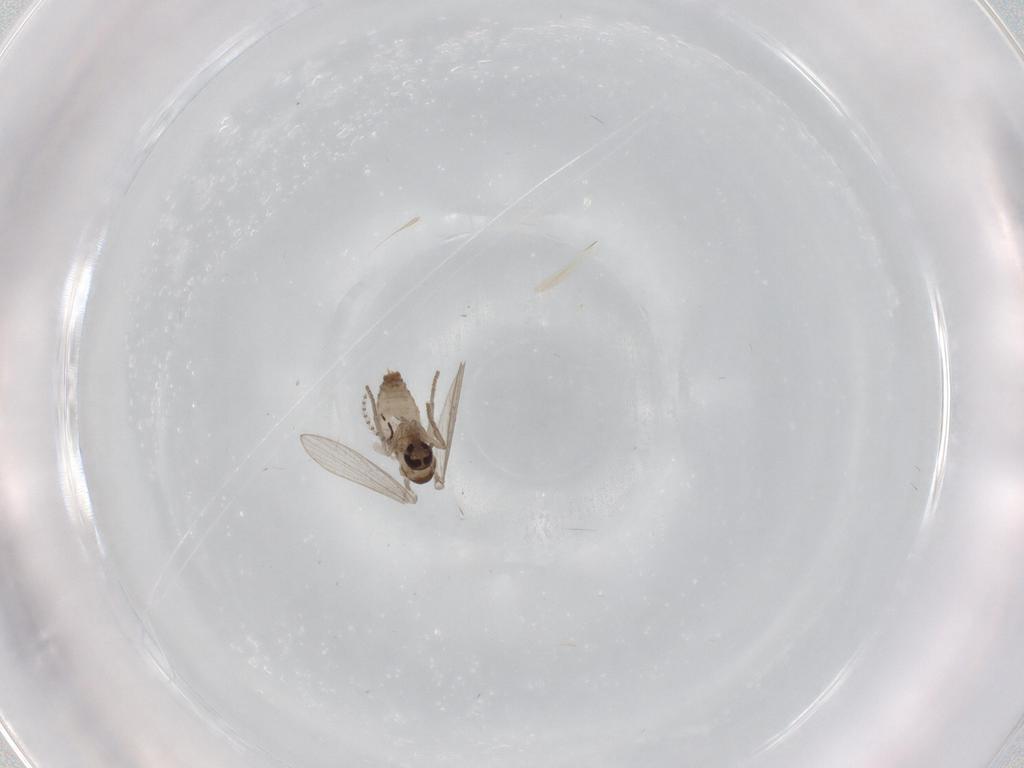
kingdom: Animalia
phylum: Arthropoda
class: Insecta
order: Diptera
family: Psychodidae
